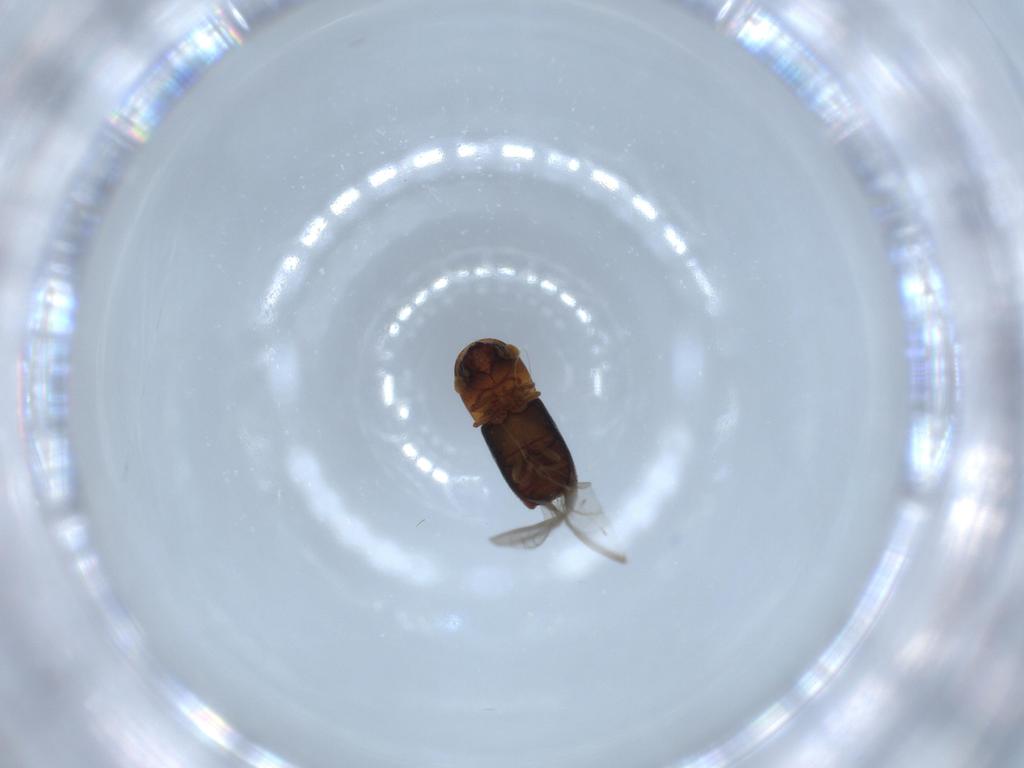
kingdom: Animalia
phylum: Arthropoda
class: Insecta
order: Coleoptera
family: Curculionidae
